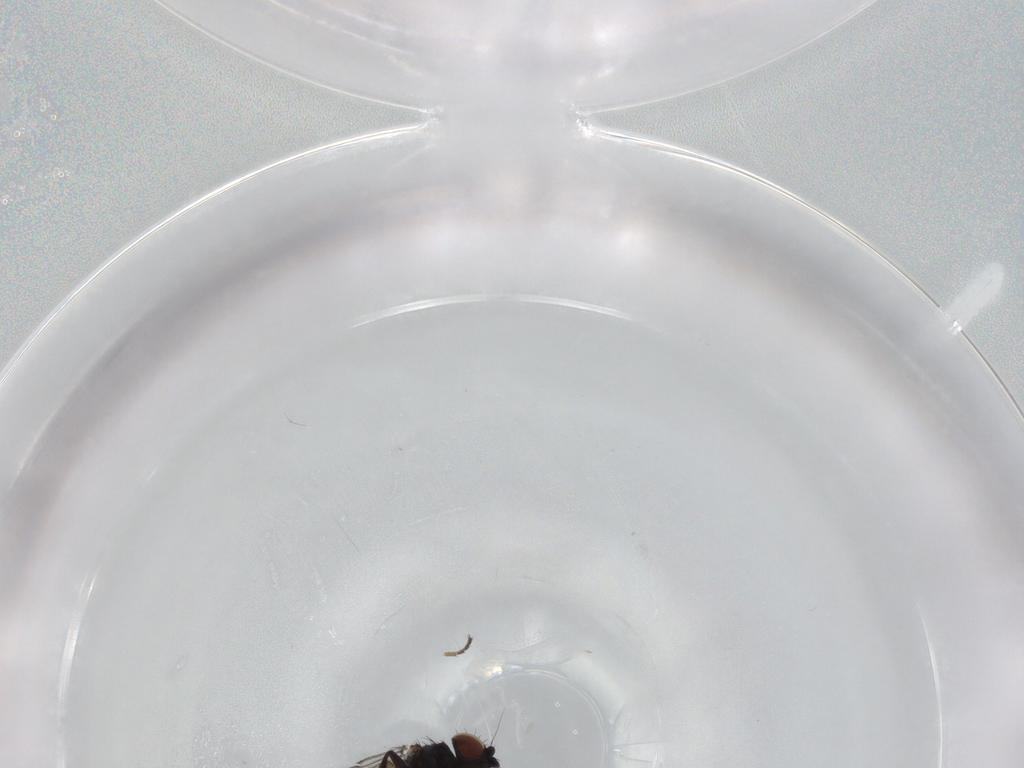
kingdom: Animalia
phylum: Arthropoda
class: Insecta
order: Diptera
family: Milichiidae
